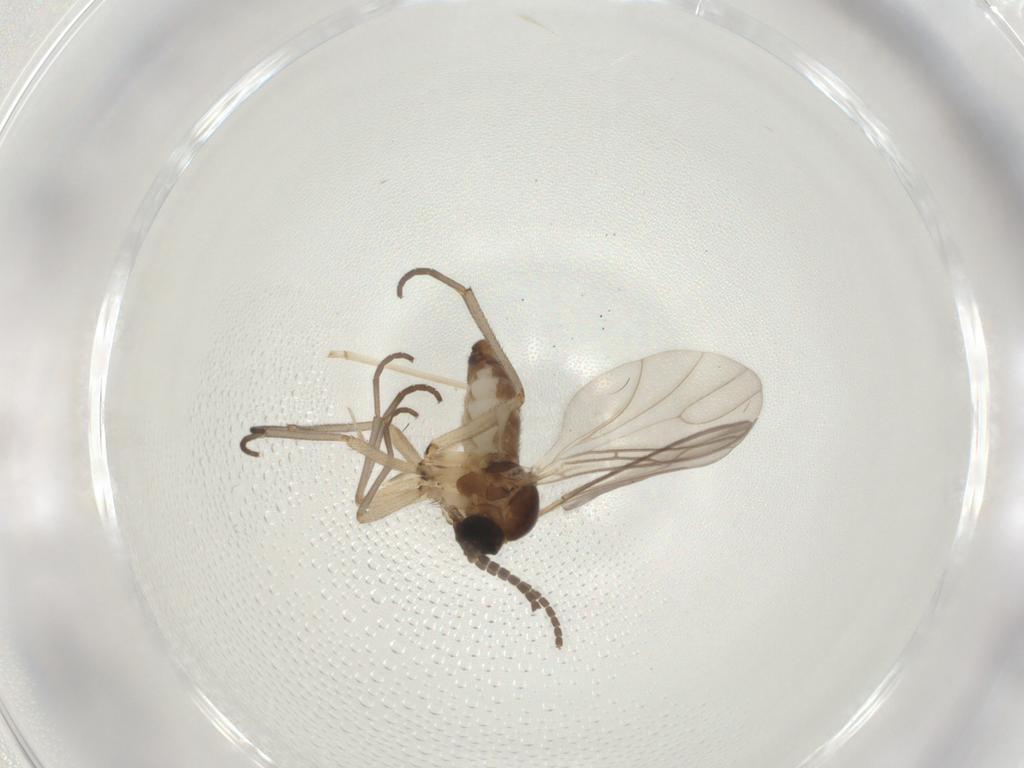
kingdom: Animalia
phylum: Arthropoda
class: Insecta
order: Diptera
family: Sciaridae
